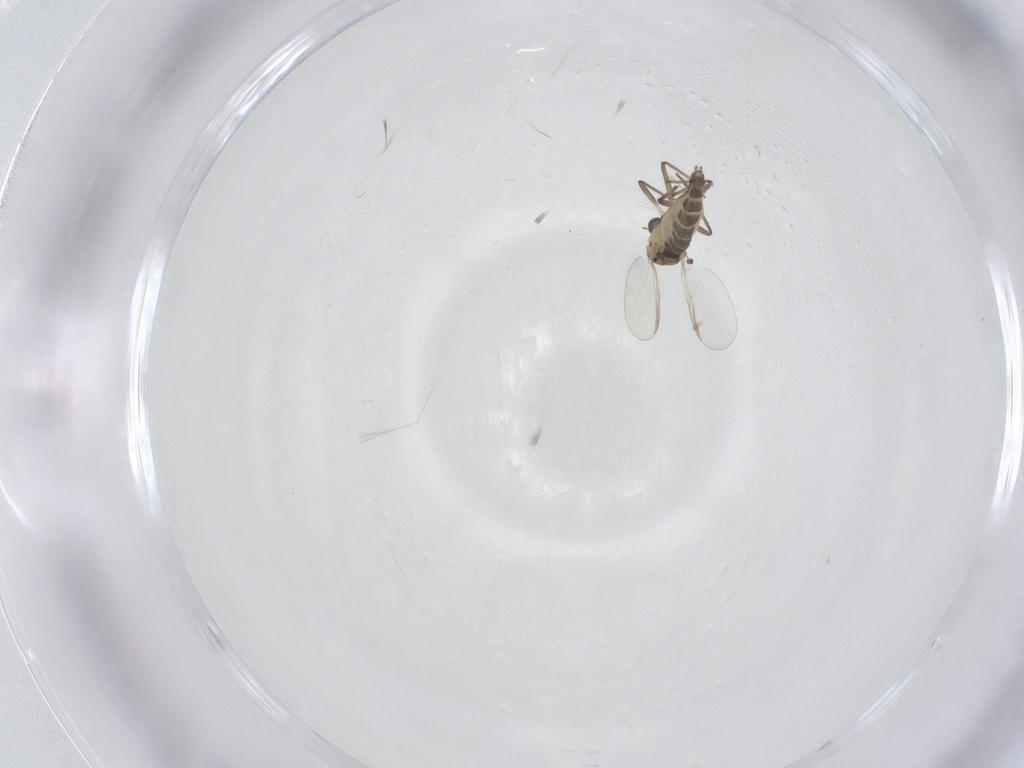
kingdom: Animalia
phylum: Arthropoda
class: Insecta
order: Diptera
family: Chironomidae
